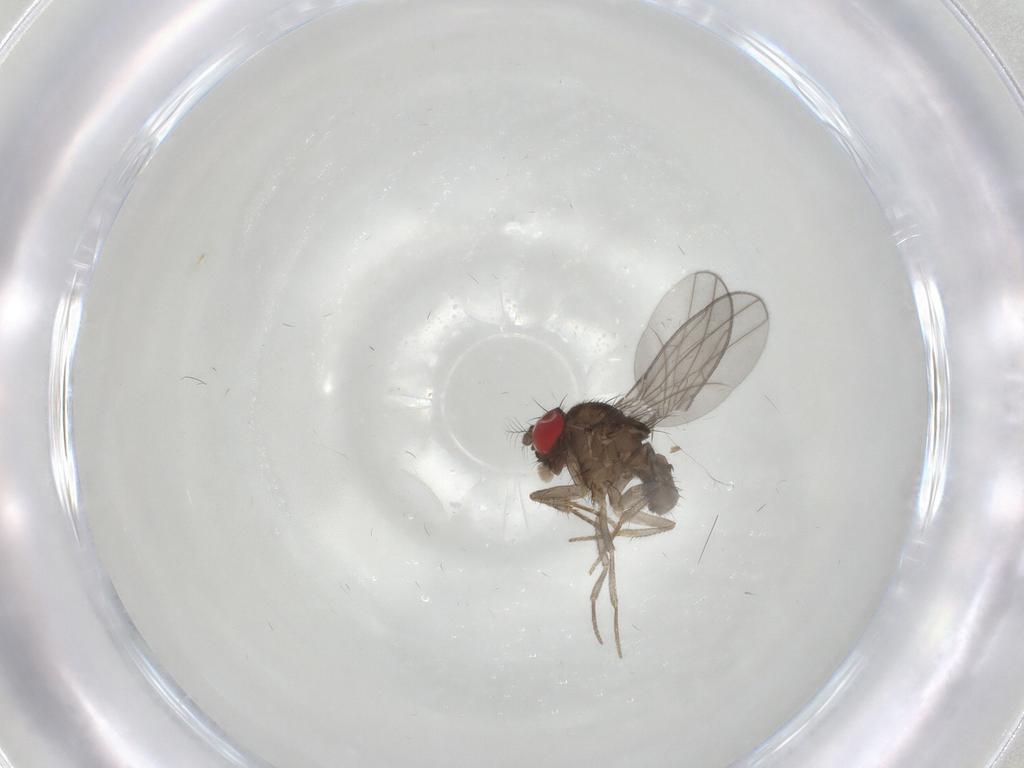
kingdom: Animalia
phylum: Arthropoda
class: Insecta
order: Diptera
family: Drosophilidae
